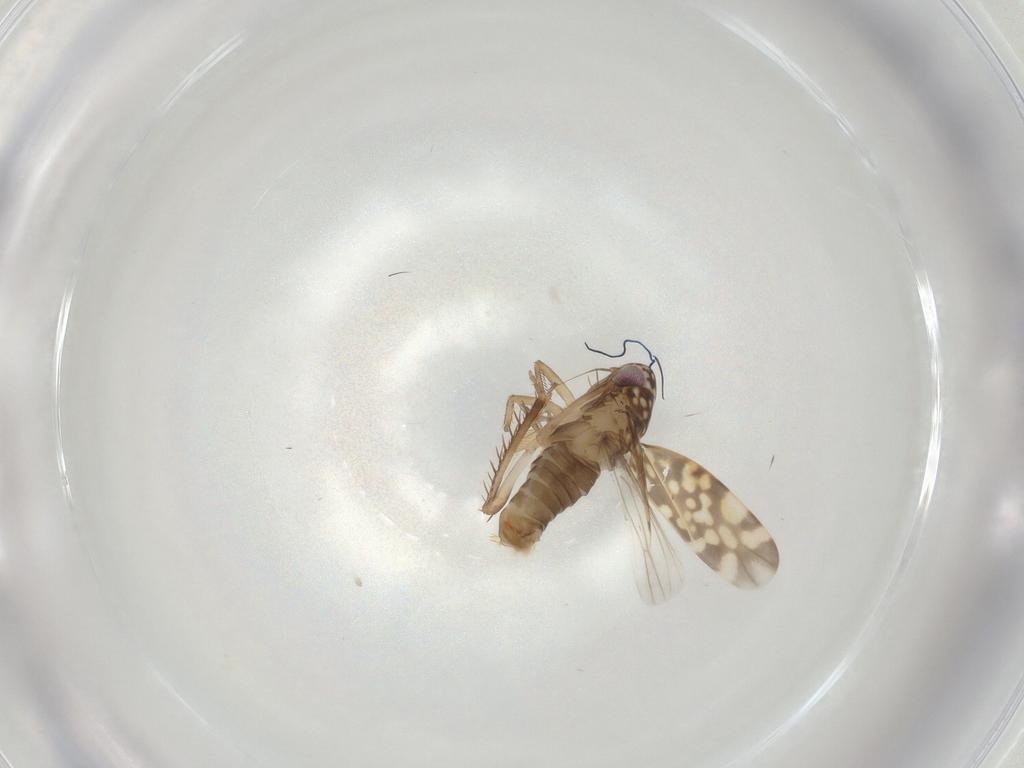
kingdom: Animalia
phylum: Arthropoda
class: Insecta
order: Hemiptera
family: Cicadellidae
